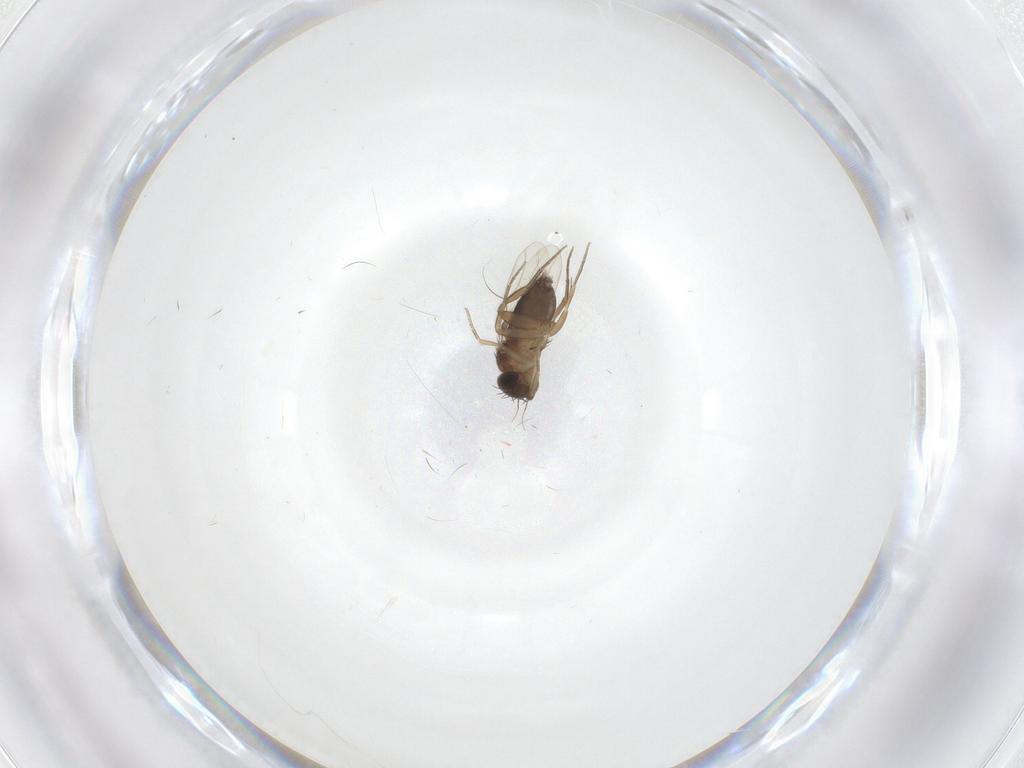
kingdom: Animalia
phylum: Arthropoda
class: Insecta
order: Diptera
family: Phoridae
